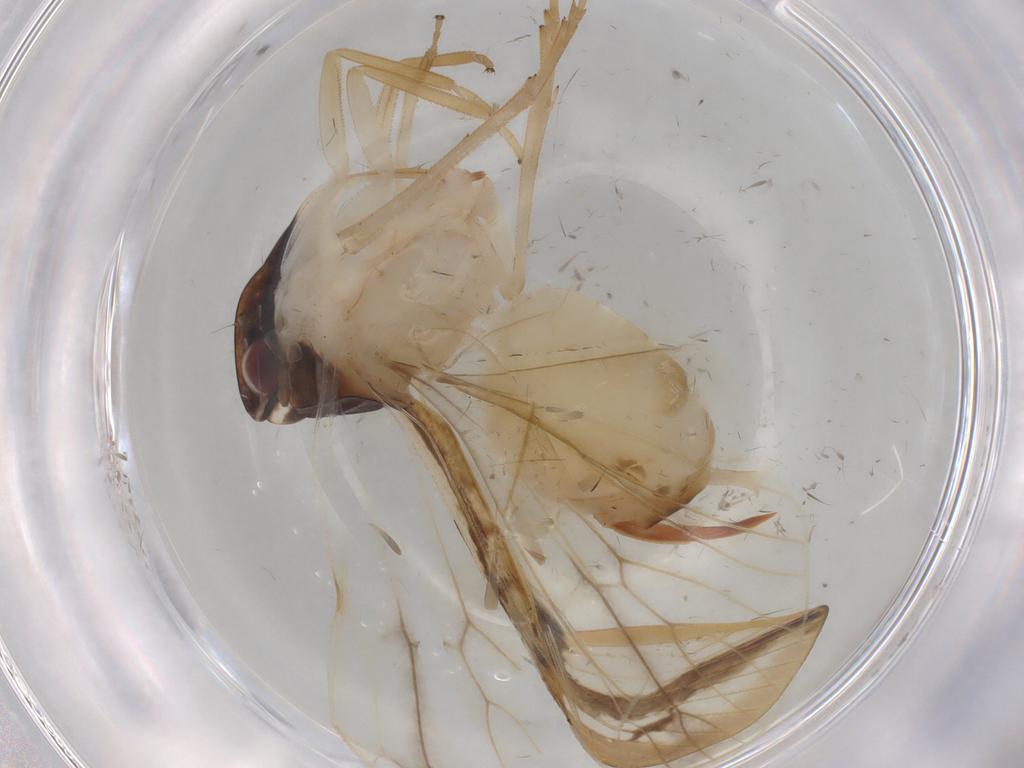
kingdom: Animalia
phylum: Arthropoda
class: Insecta
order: Hemiptera
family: Cixiidae
